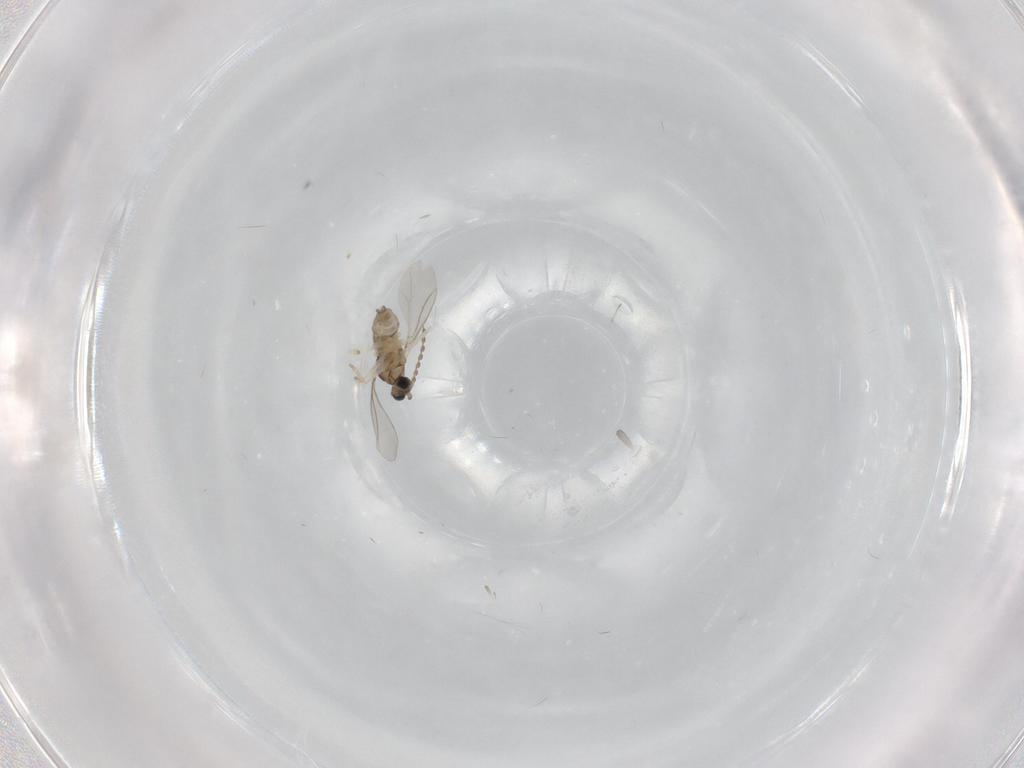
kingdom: Animalia
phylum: Arthropoda
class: Insecta
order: Diptera
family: Cecidomyiidae
